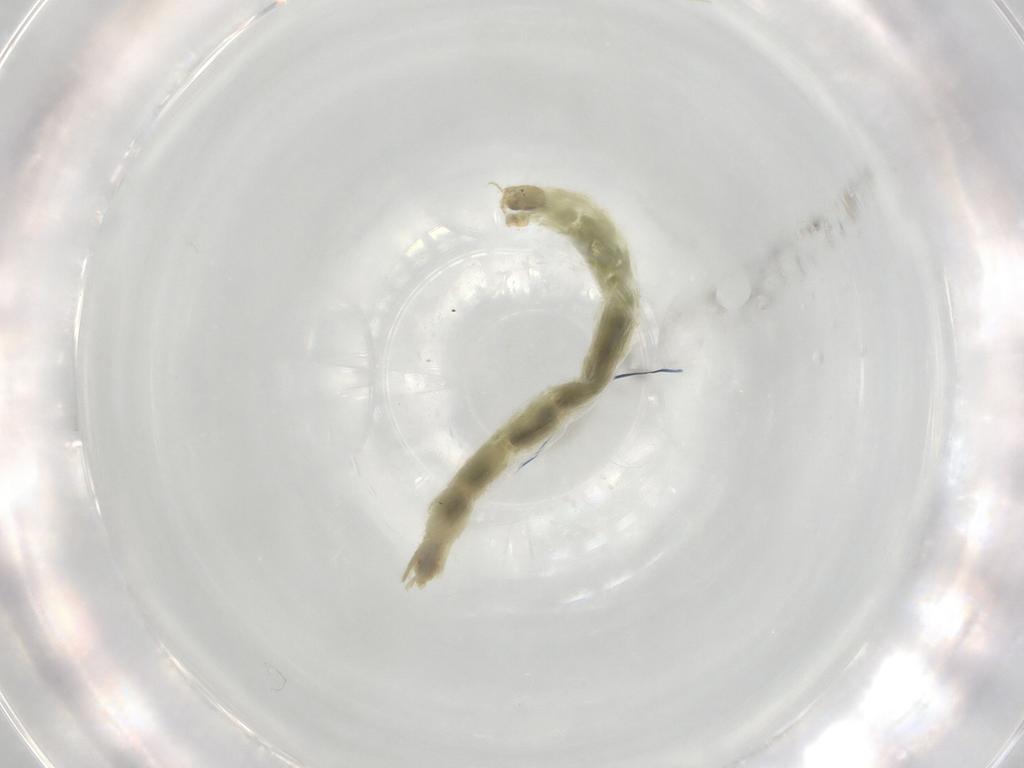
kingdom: Animalia
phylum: Arthropoda
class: Insecta
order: Diptera
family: Chironomidae
